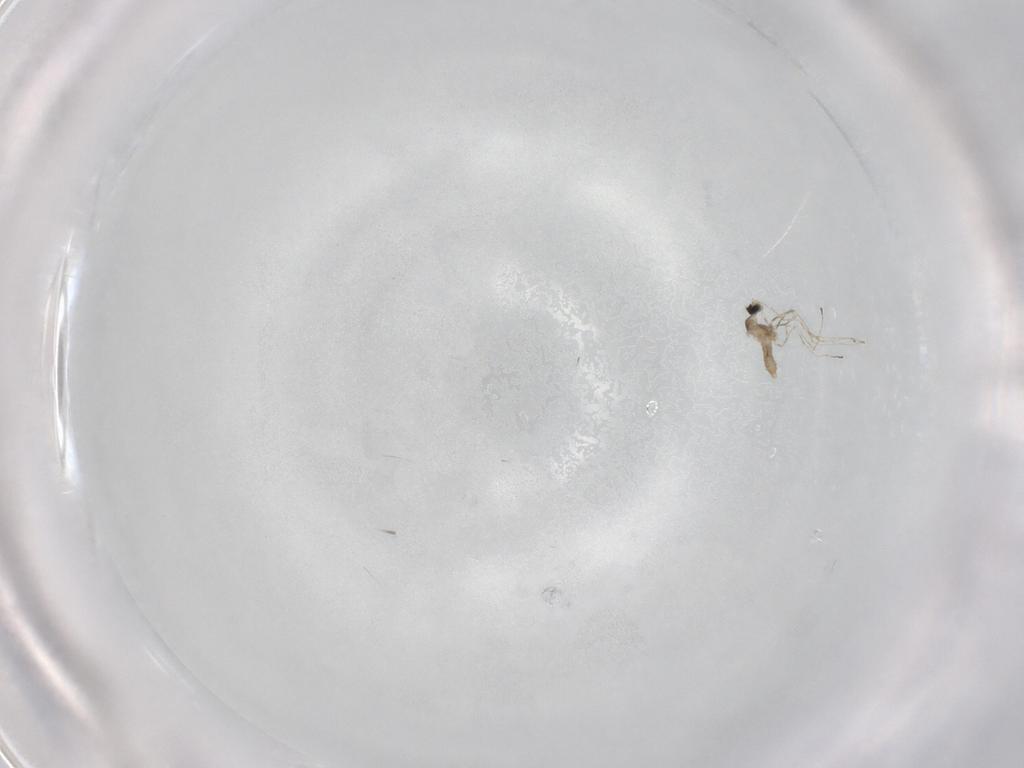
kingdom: Animalia
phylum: Arthropoda
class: Insecta
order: Diptera
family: Cecidomyiidae
